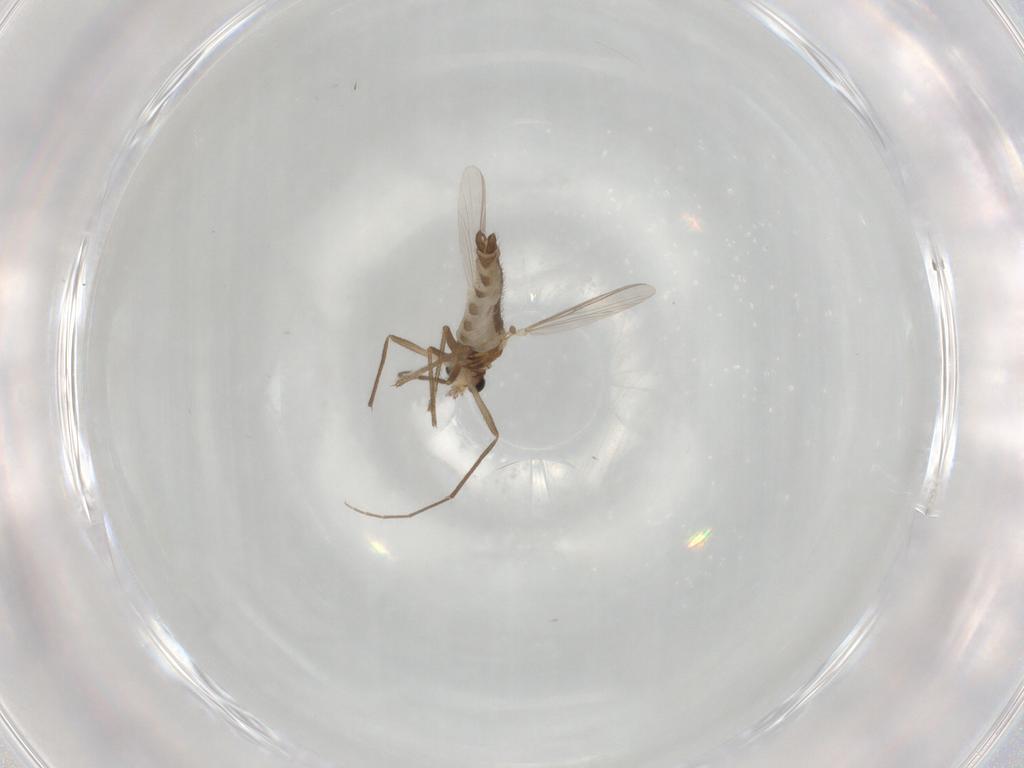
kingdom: Animalia
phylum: Arthropoda
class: Insecta
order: Diptera
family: Chironomidae
